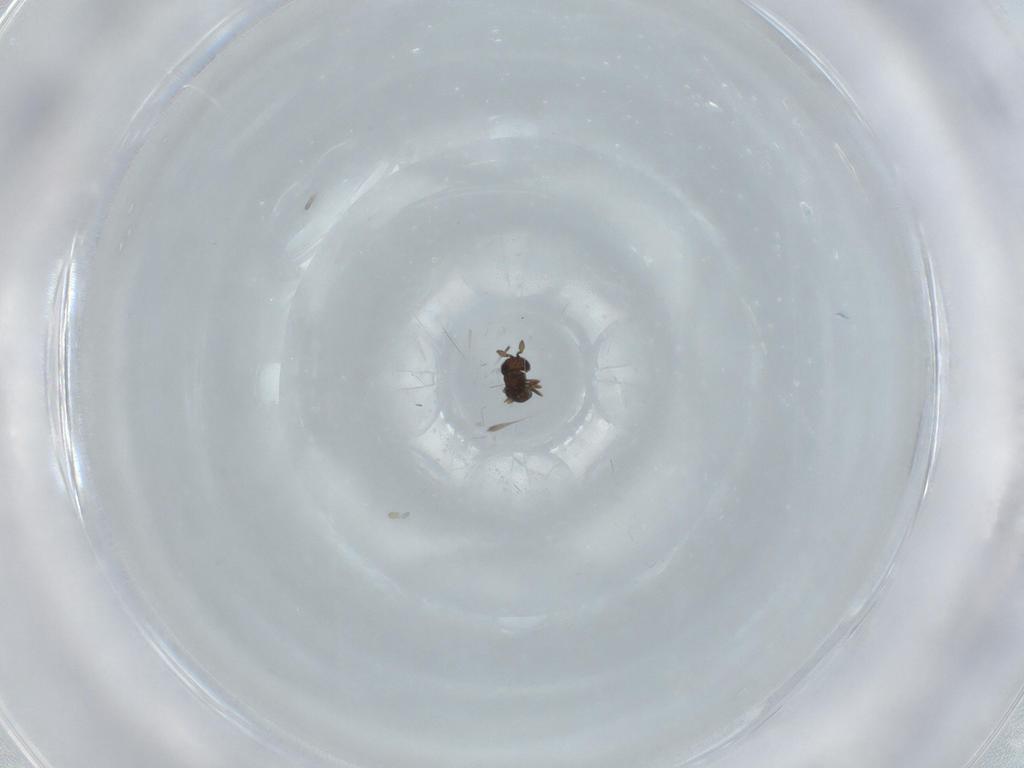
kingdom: Animalia
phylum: Arthropoda
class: Insecta
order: Hymenoptera
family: Scelionidae
